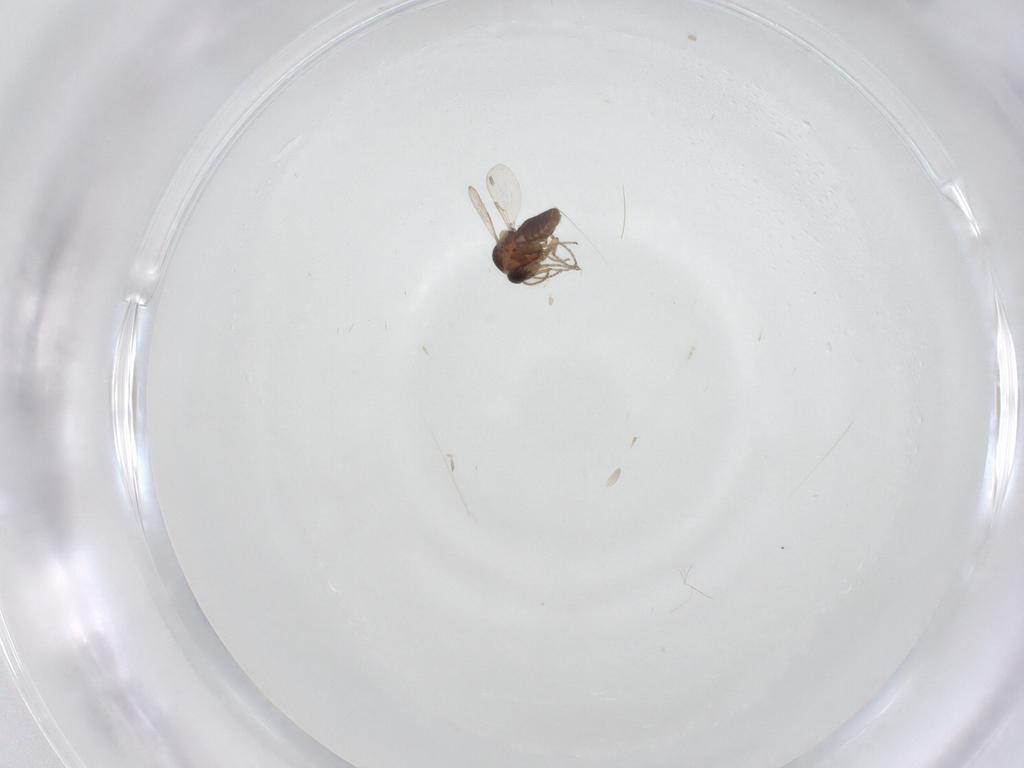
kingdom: Animalia
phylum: Arthropoda
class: Insecta
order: Diptera
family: Ceratopogonidae
